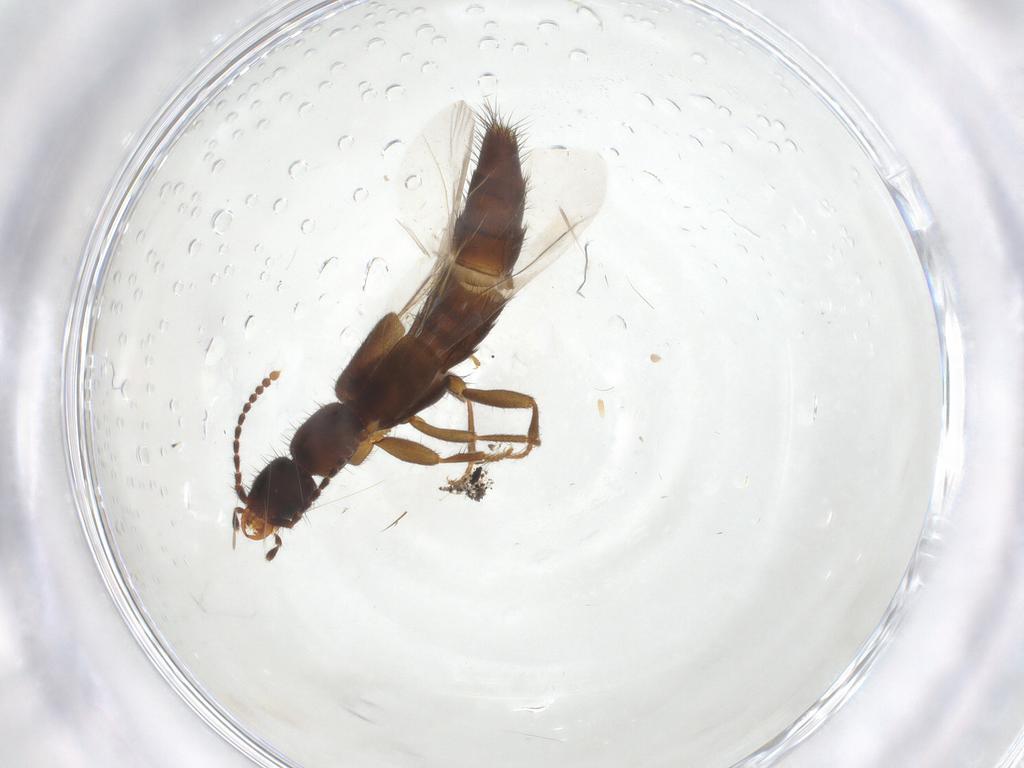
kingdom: Animalia
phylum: Arthropoda
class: Insecta
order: Coleoptera
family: Staphylinidae
